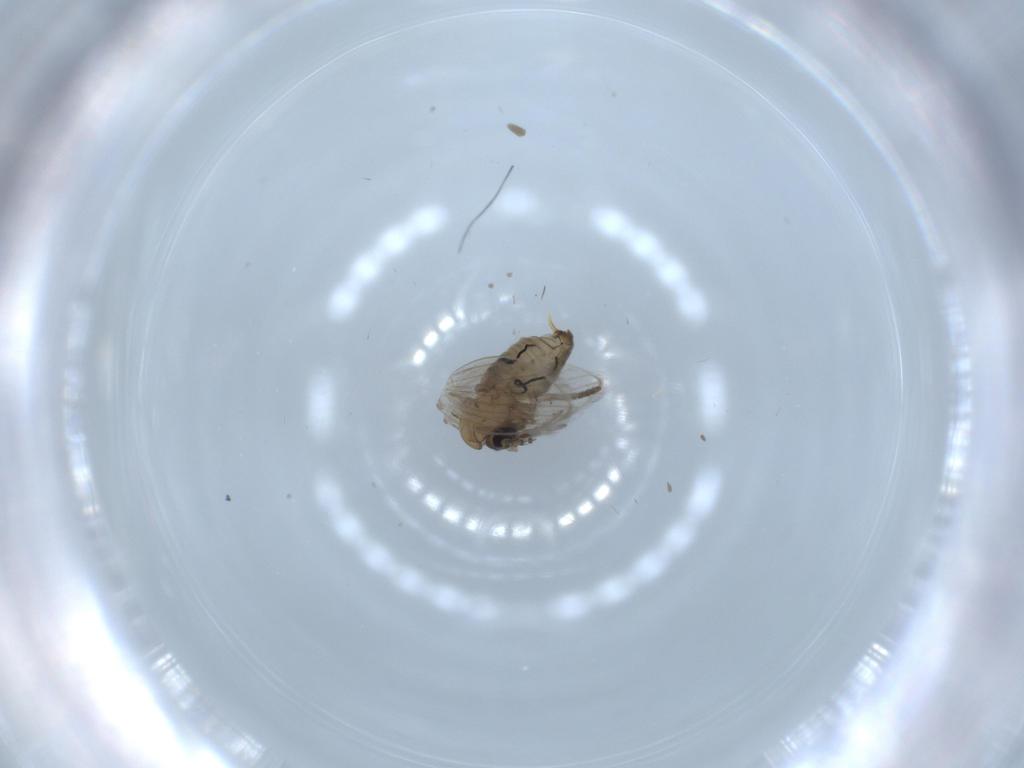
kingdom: Animalia
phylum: Arthropoda
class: Insecta
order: Diptera
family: Psychodidae
